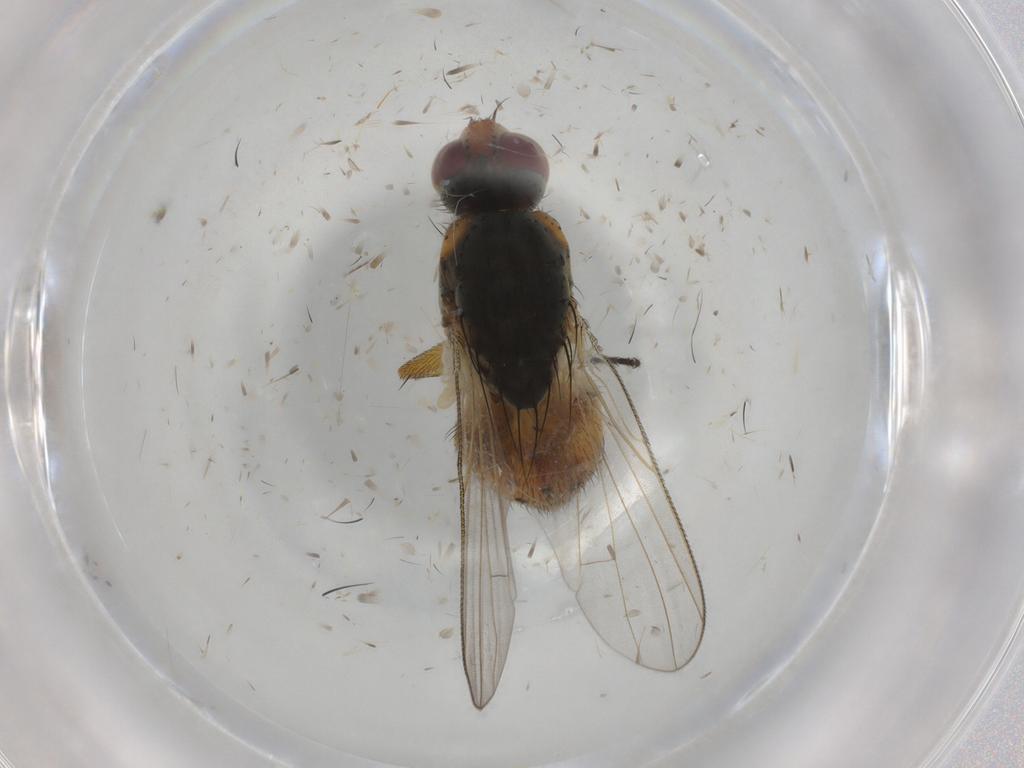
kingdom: Animalia
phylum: Arthropoda
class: Insecta
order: Diptera
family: Muscidae
